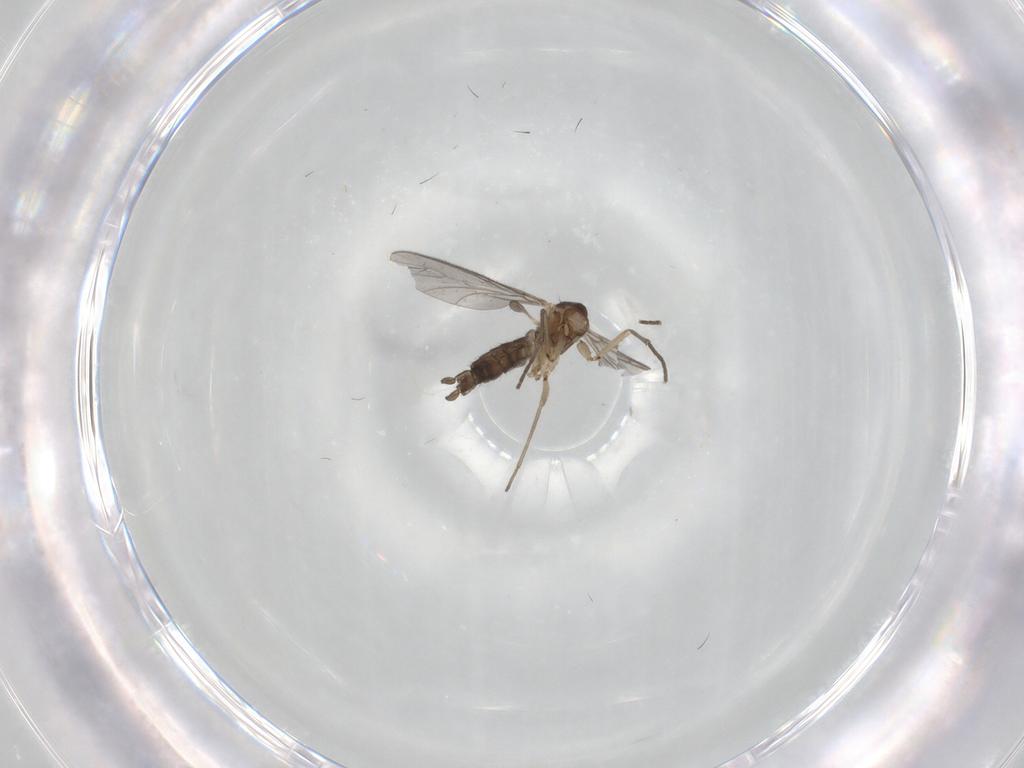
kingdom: Animalia
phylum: Arthropoda
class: Insecta
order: Diptera
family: Sciaridae
